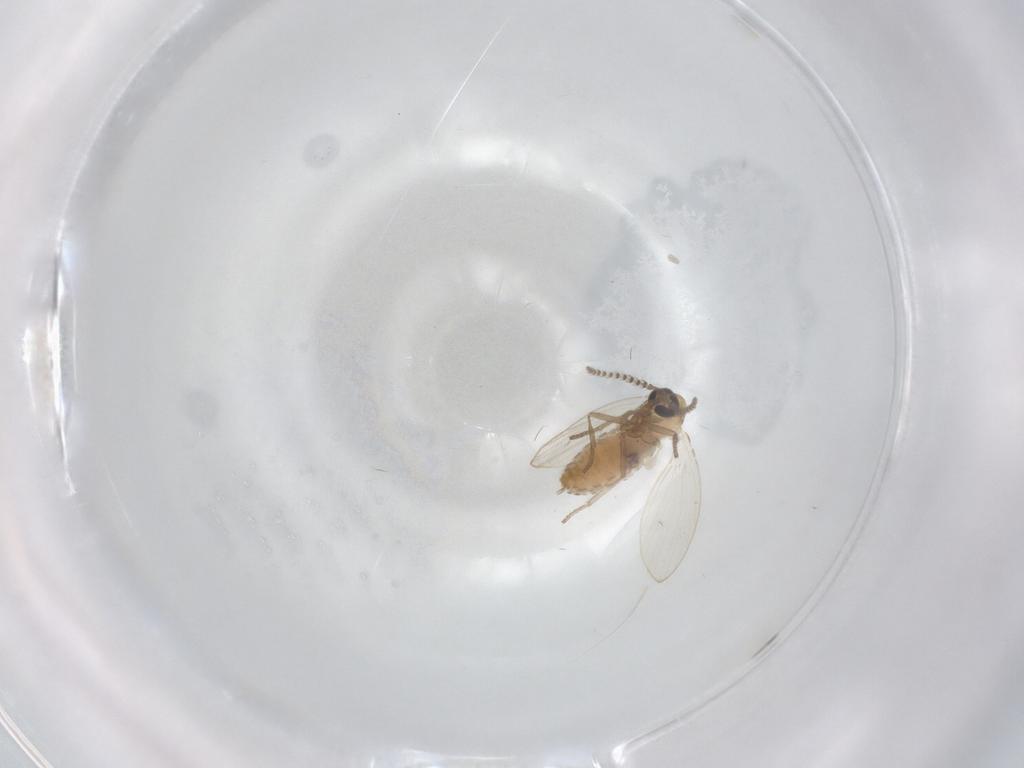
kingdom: Animalia
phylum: Arthropoda
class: Insecta
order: Diptera
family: Psychodidae
